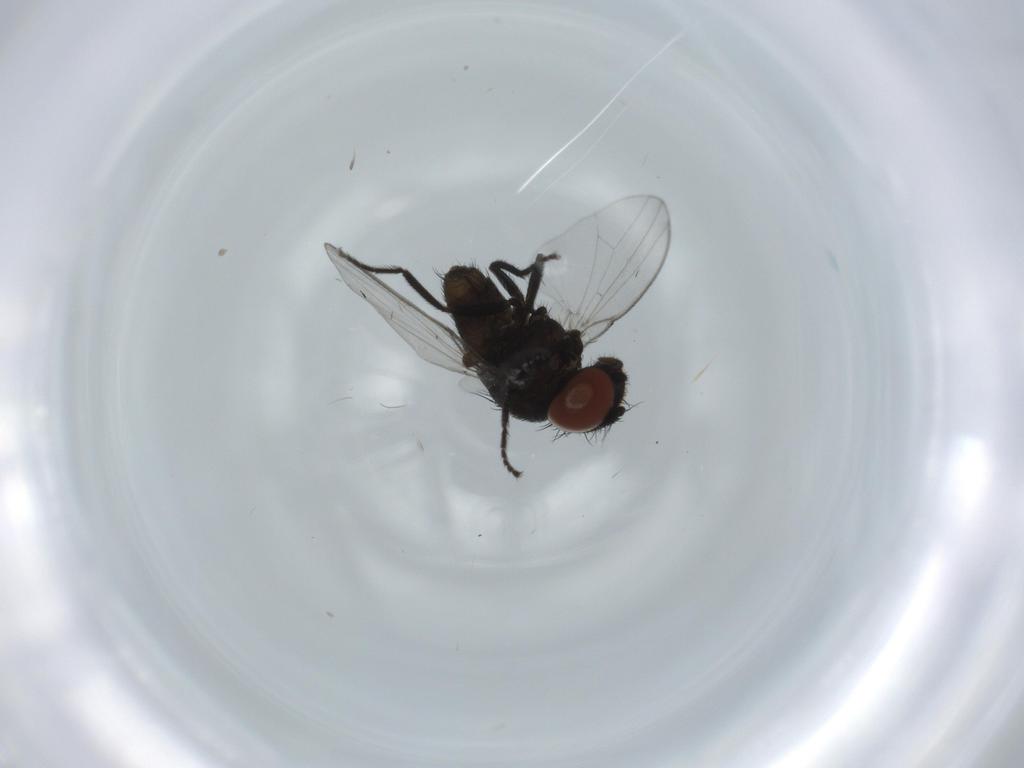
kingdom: Animalia
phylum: Arthropoda
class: Insecta
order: Diptera
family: Milichiidae
